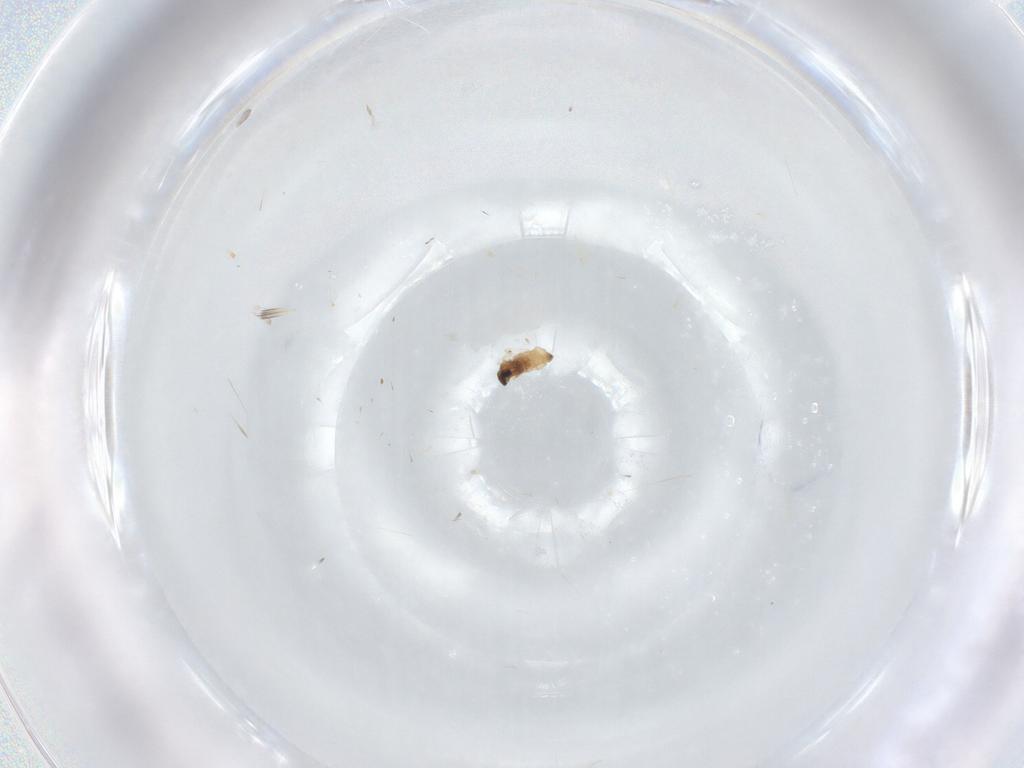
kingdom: Animalia
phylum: Arthropoda
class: Insecta
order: Diptera
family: Cecidomyiidae
